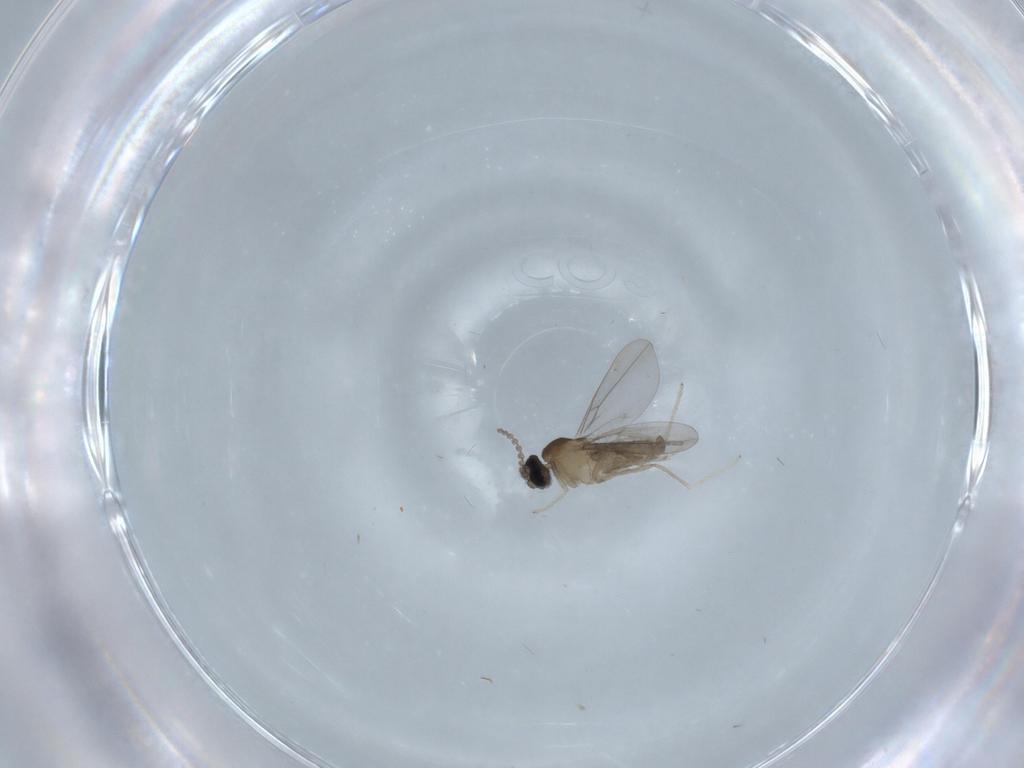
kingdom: Animalia
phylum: Arthropoda
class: Insecta
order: Diptera
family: Cecidomyiidae
